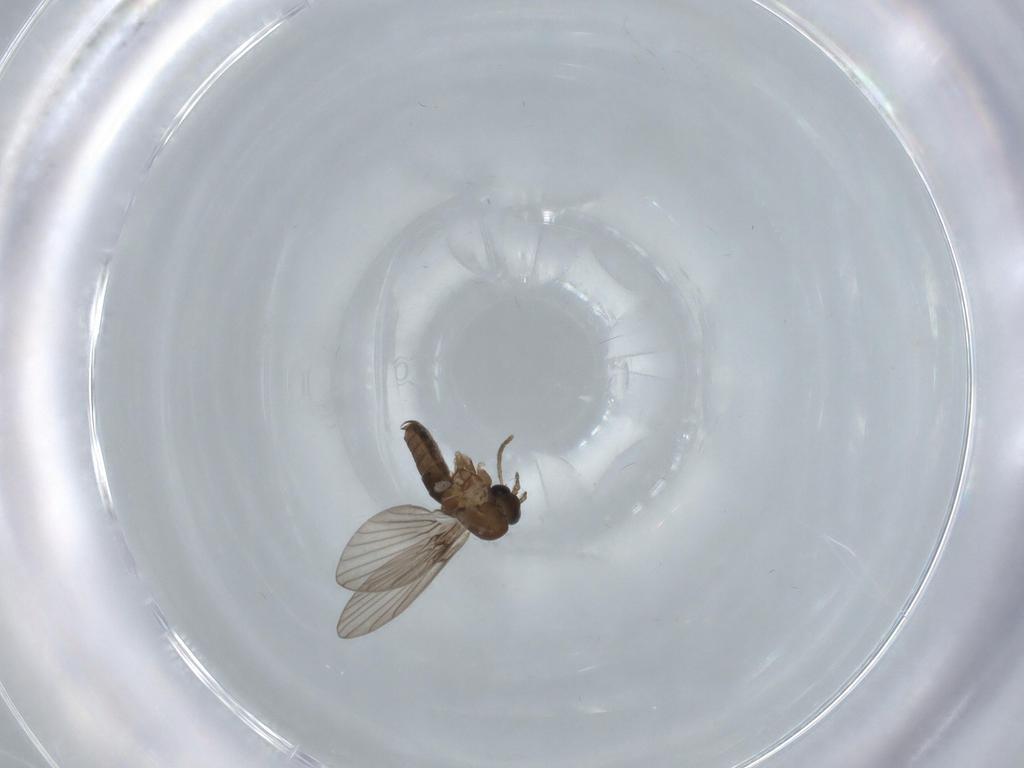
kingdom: Animalia
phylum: Arthropoda
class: Insecta
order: Diptera
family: Psychodidae
